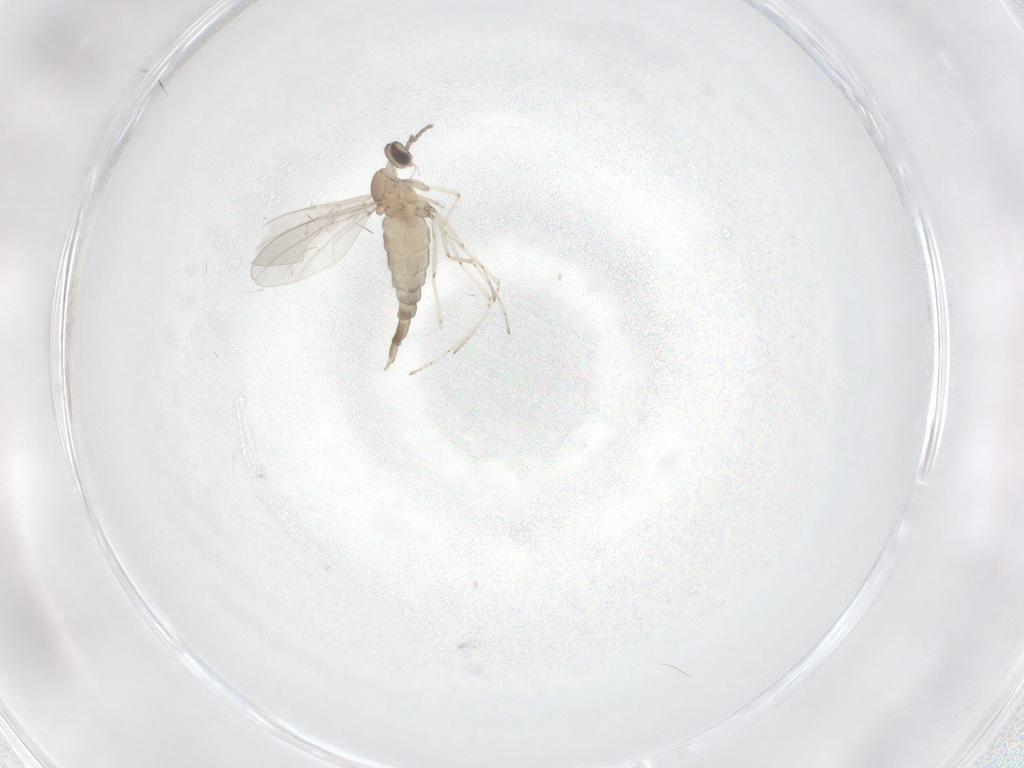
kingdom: Animalia
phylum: Arthropoda
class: Insecta
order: Diptera
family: Cecidomyiidae
